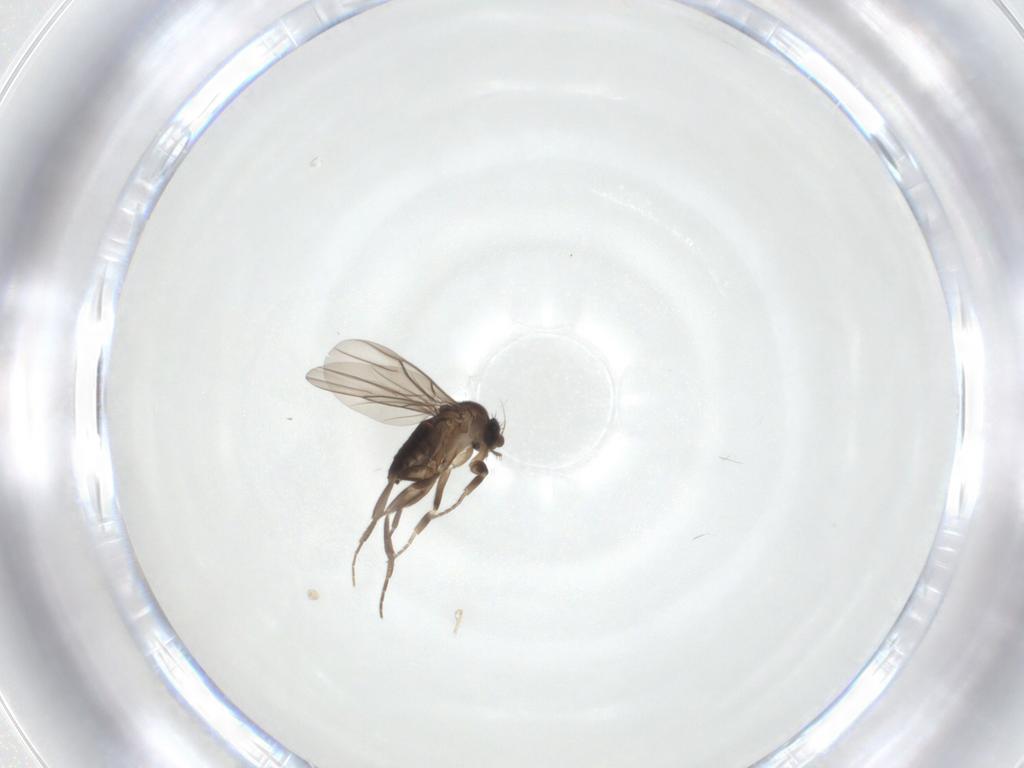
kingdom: Animalia
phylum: Arthropoda
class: Insecta
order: Diptera
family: Phoridae
